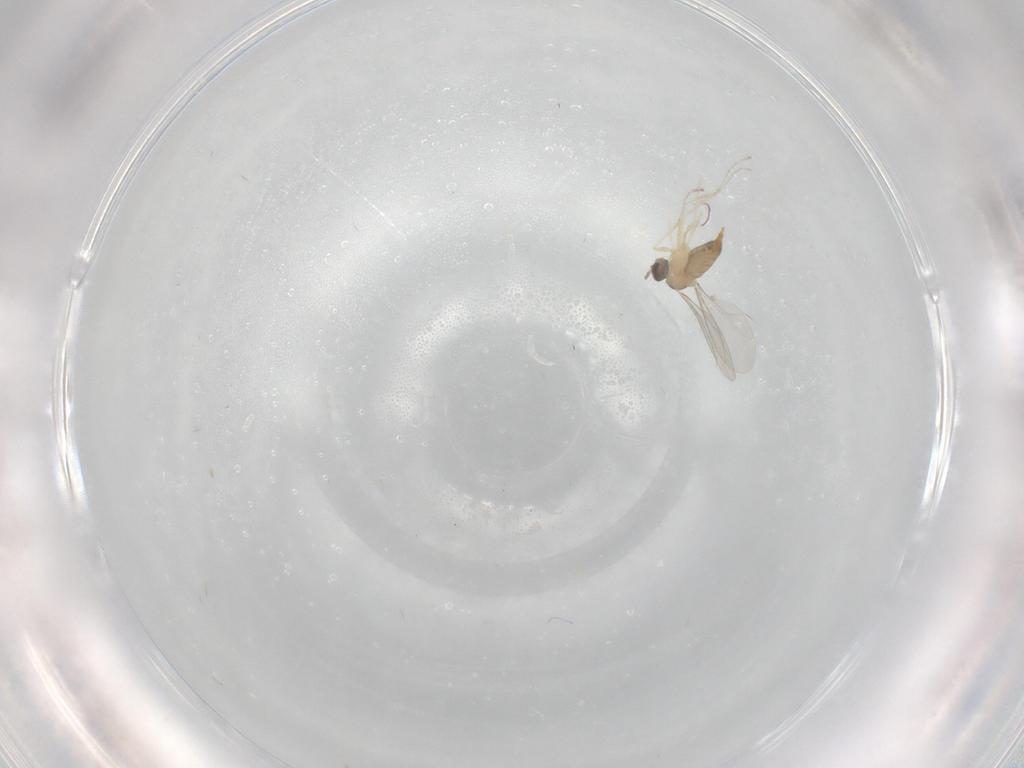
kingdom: Animalia
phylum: Arthropoda
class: Insecta
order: Diptera
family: Cecidomyiidae
